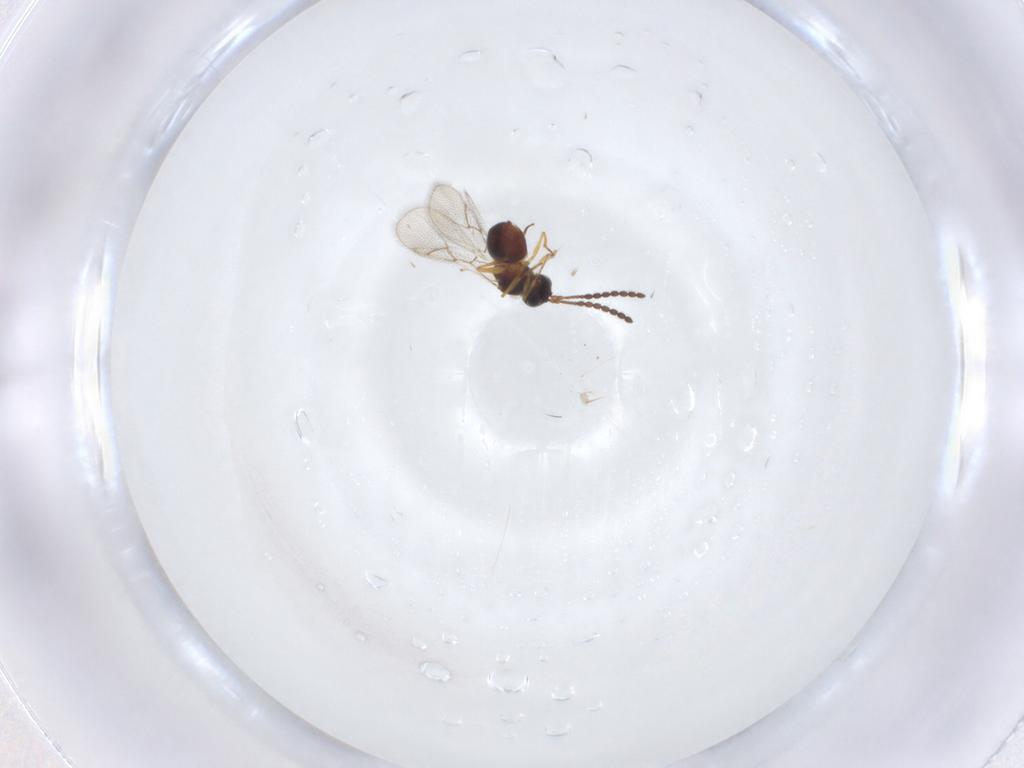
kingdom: Animalia
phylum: Arthropoda
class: Insecta
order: Hymenoptera
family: Figitidae
